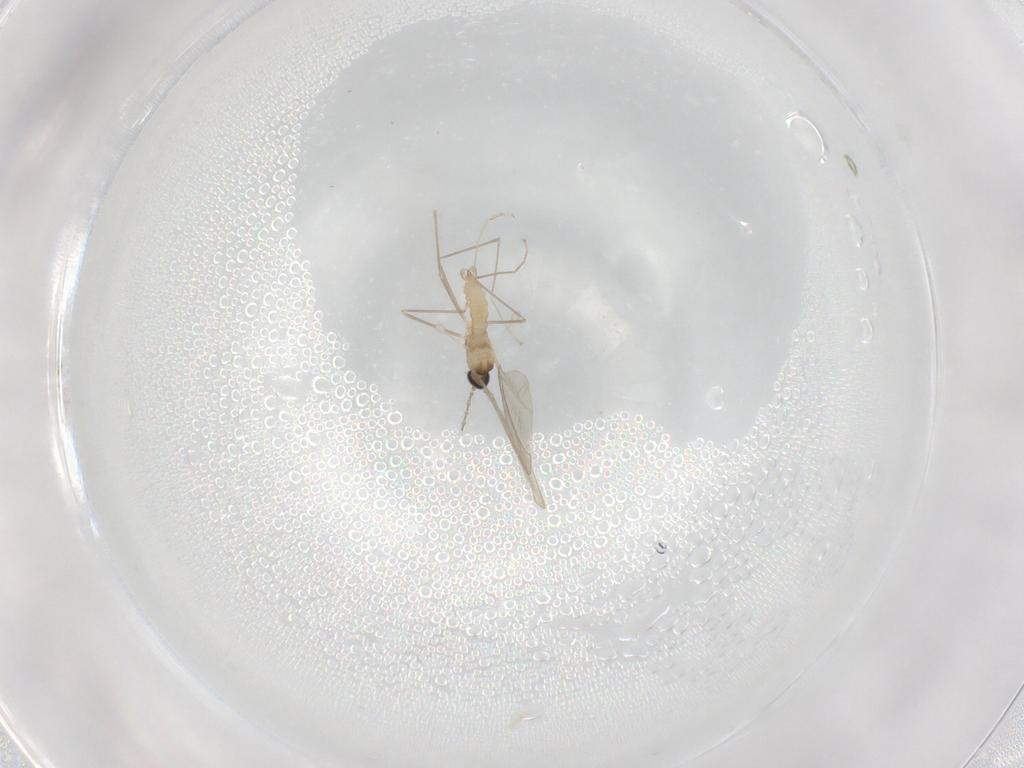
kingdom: Animalia
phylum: Arthropoda
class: Insecta
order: Diptera
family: Cecidomyiidae
